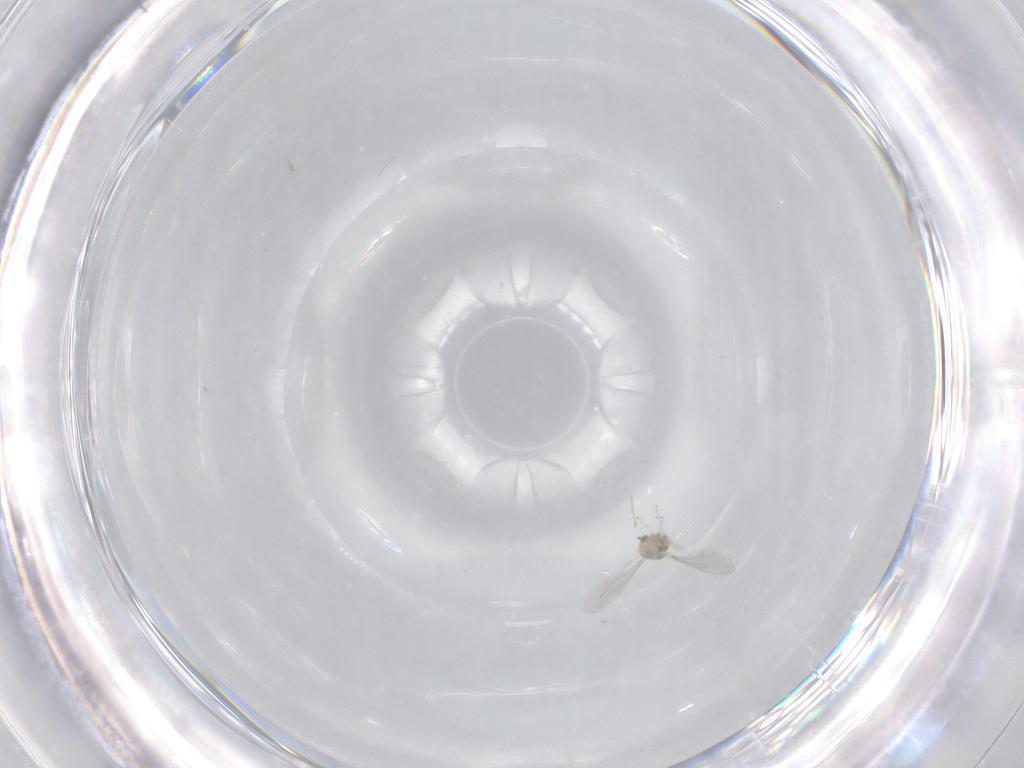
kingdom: Animalia
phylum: Arthropoda
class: Insecta
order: Diptera
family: Cecidomyiidae
